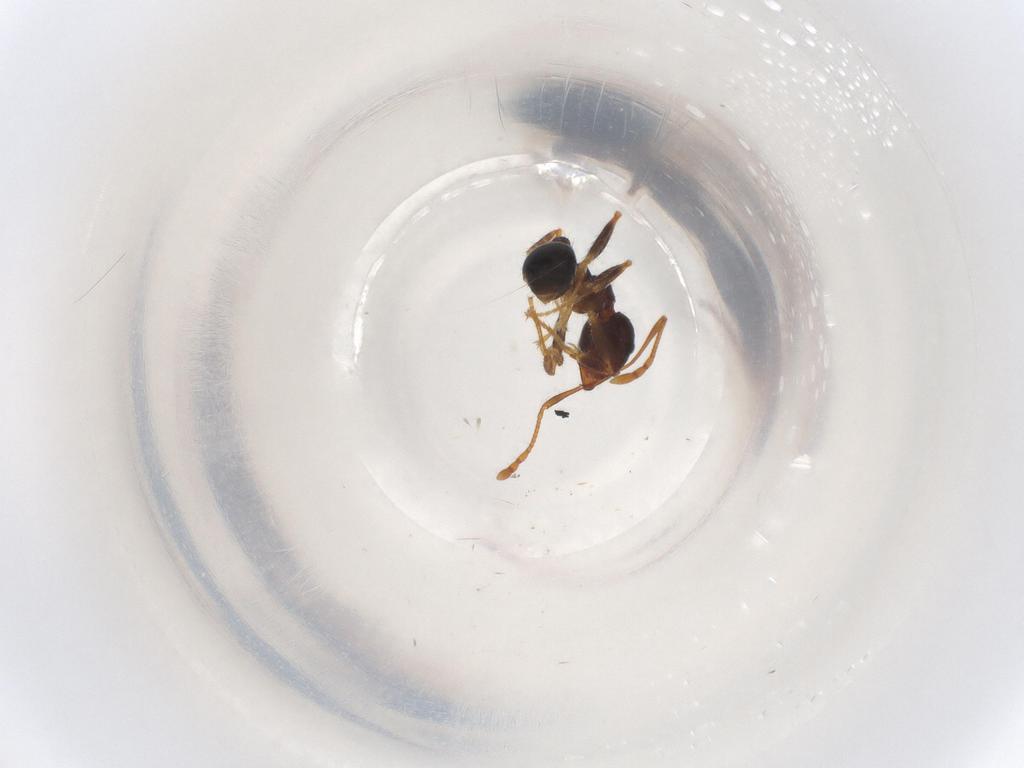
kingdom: Animalia
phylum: Arthropoda
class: Insecta
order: Hymenoptera
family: Formicidae
